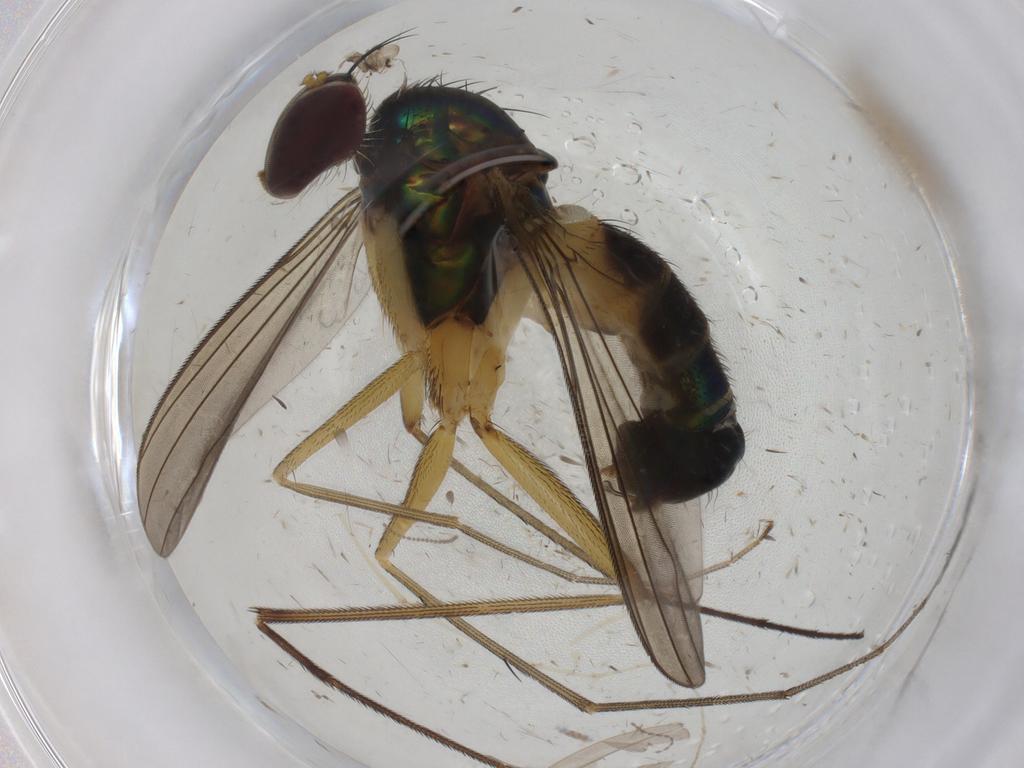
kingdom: Animalia
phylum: Arthropoda
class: Insecta
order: Diptera
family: Dolichopodidae
